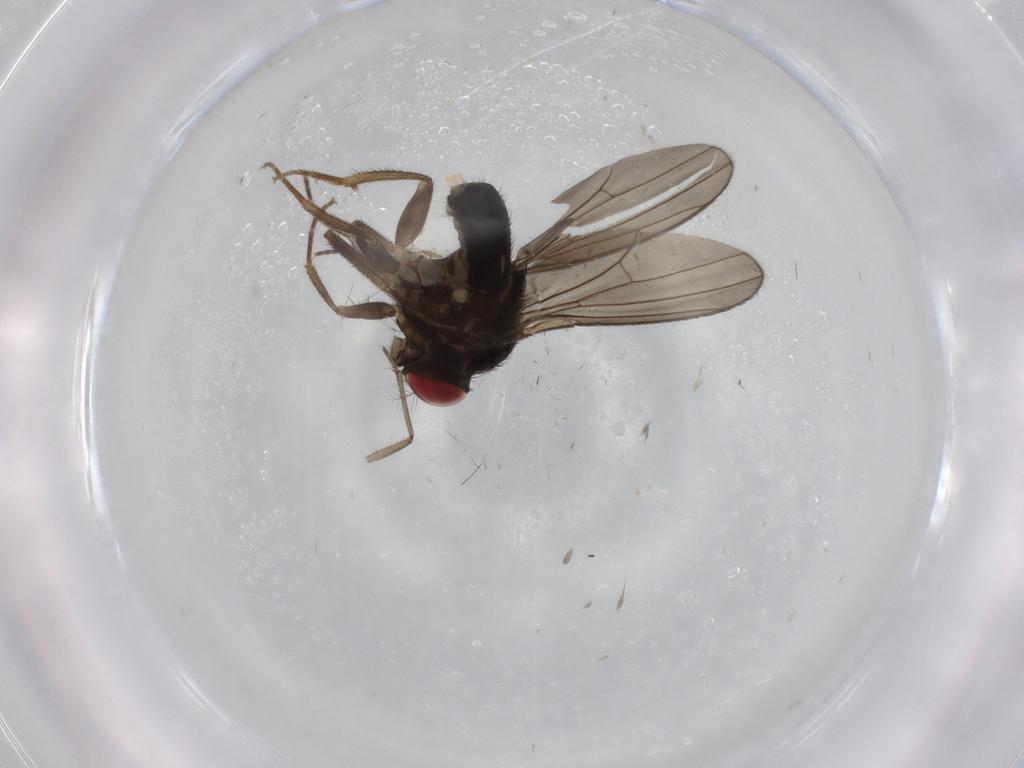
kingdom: Animalia
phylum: Arthropoda
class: Insecta
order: Diptera
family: Drosophilidae
